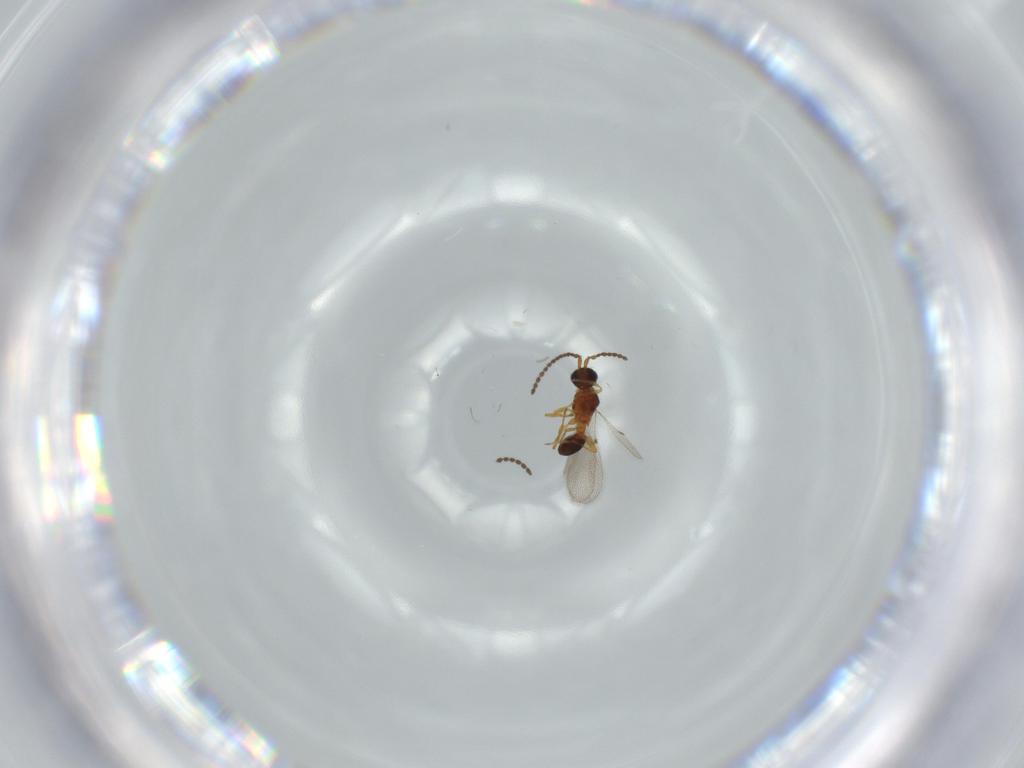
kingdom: Animalia
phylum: Arthropoda
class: Insecta
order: Hymenoptera
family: Diapriidae
